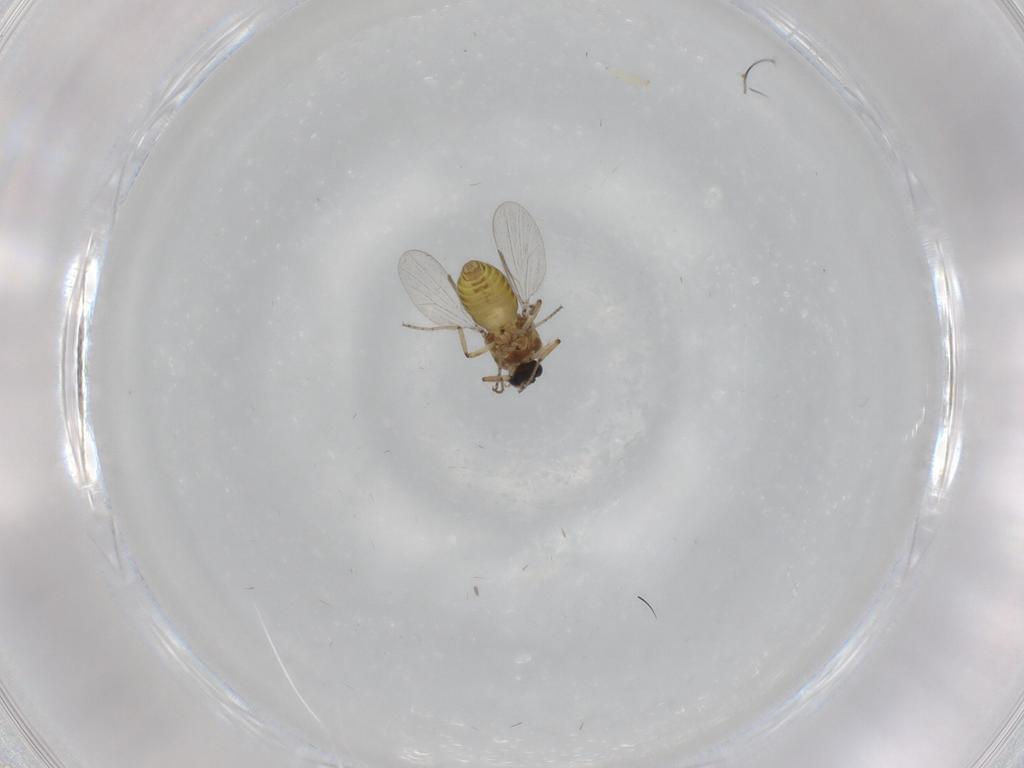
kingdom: Animalia
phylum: Arthropoda
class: Insecta
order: Diptera
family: Ceratopogonidae
